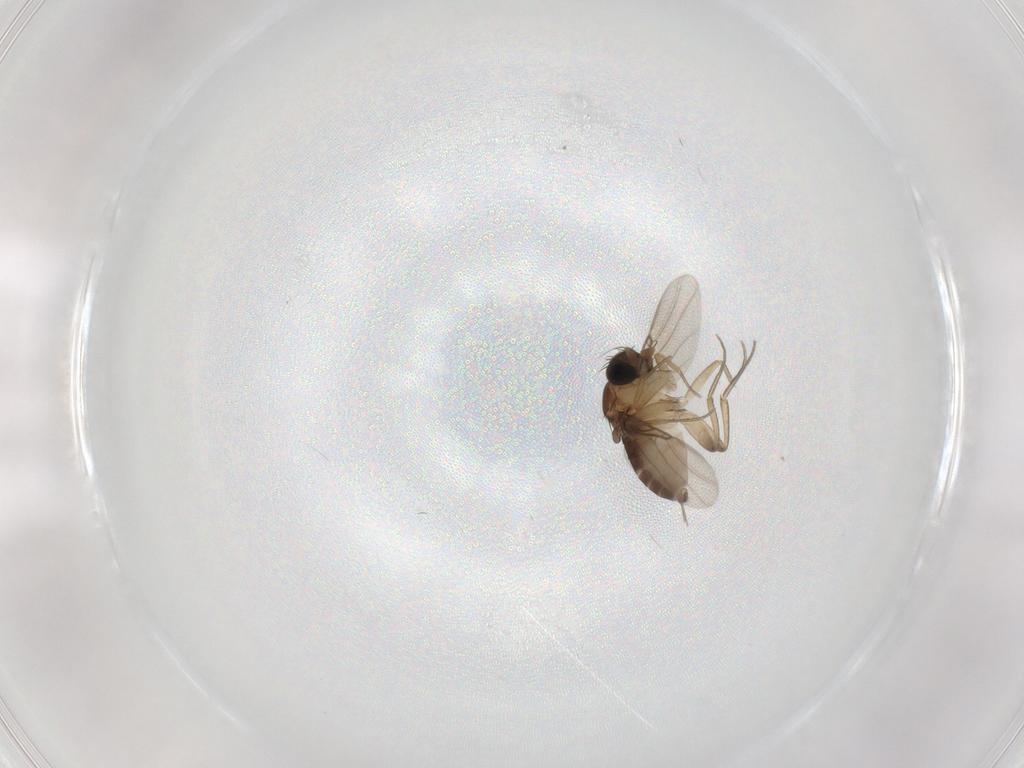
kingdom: Animalia
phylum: Arthropoda
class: Insecta
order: Diptera
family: Phoridae
